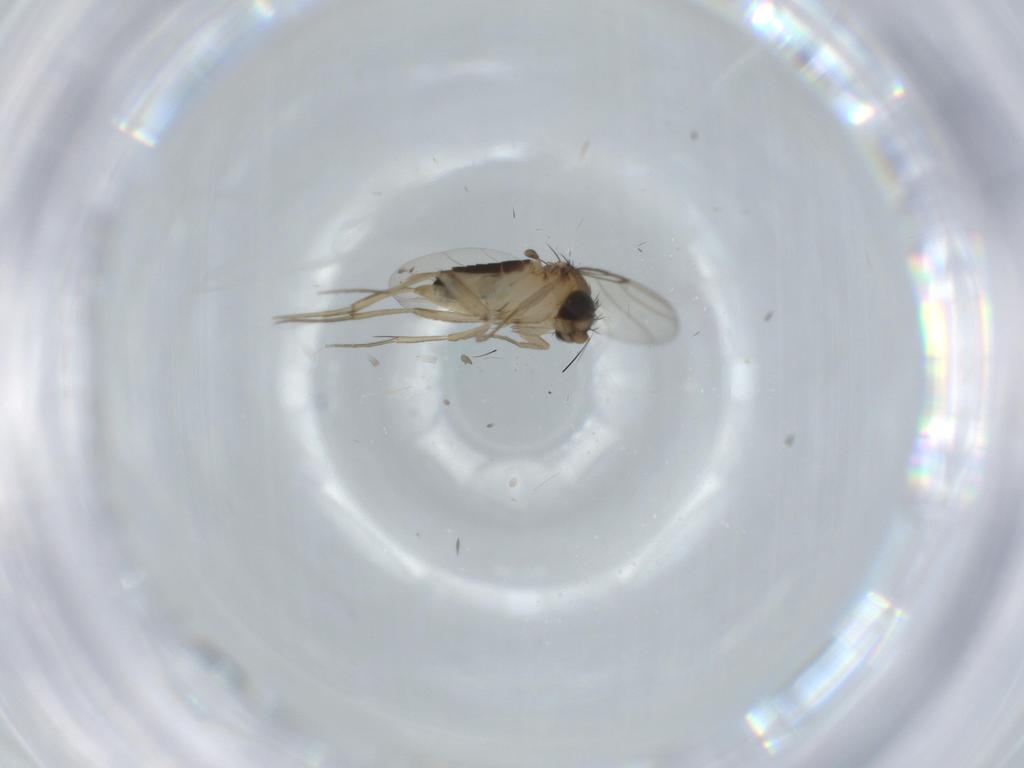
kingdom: Animalia
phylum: Arthropoda
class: Insecta
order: Diptera
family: Phoridae
